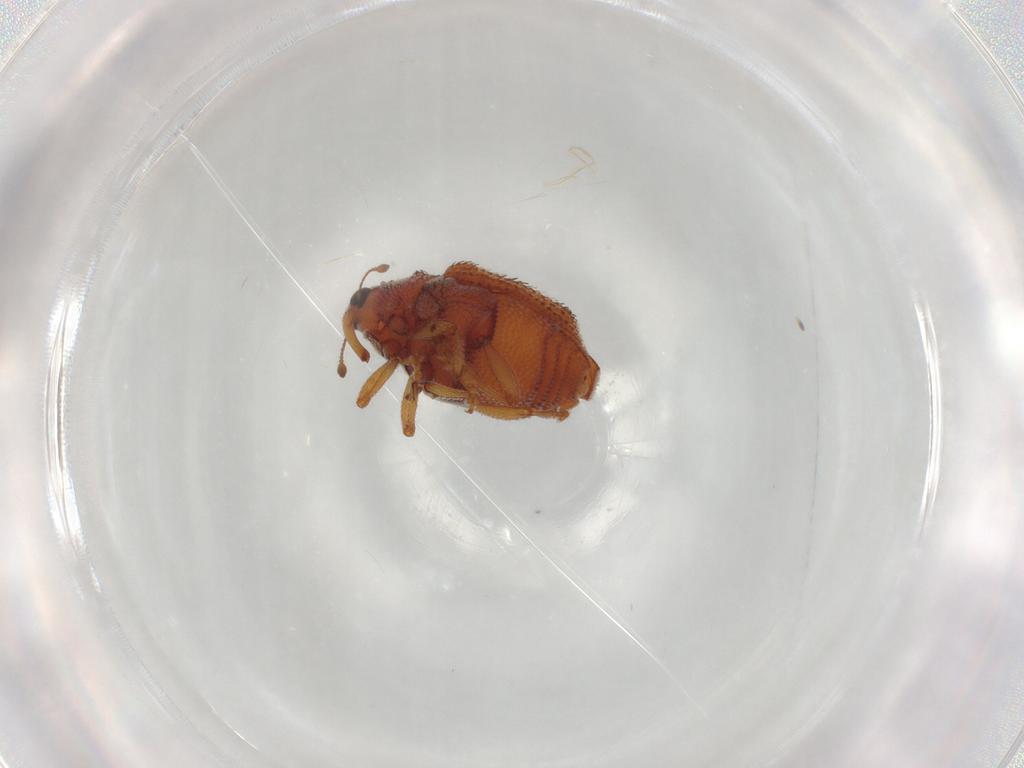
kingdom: Animalia
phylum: Arthropoda
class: Insecta
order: Coleoptera
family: Curculionidae
